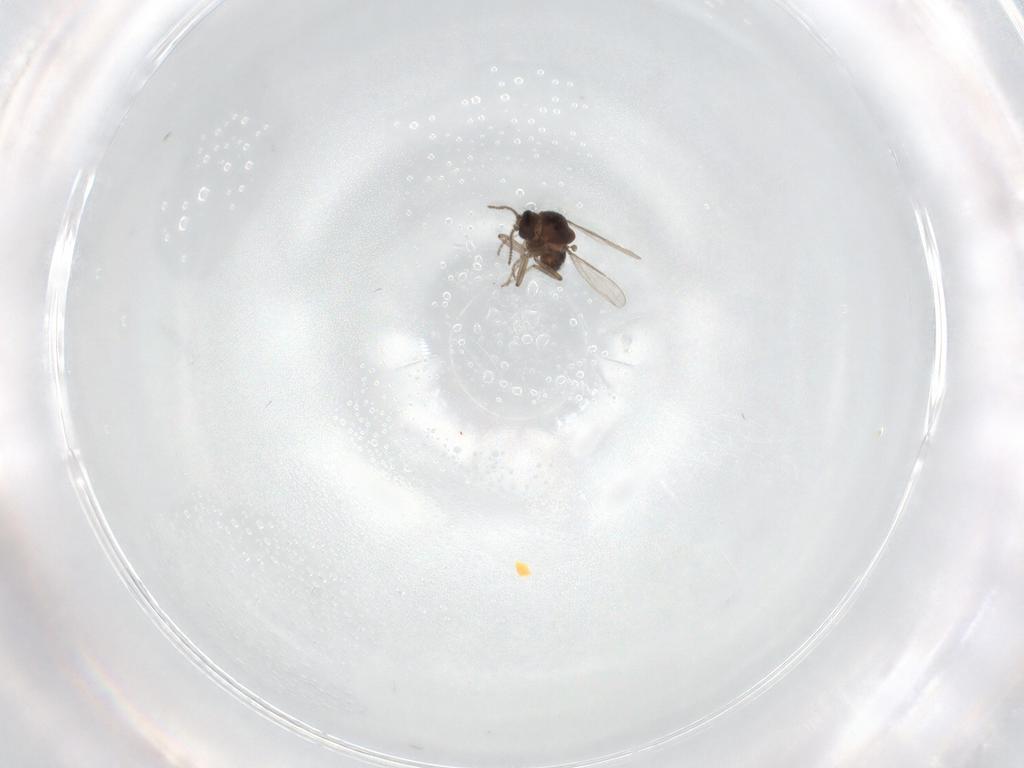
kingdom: Animalia
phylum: Arthropoda
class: Insecta
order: Diptera
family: Ceratopogonidae
